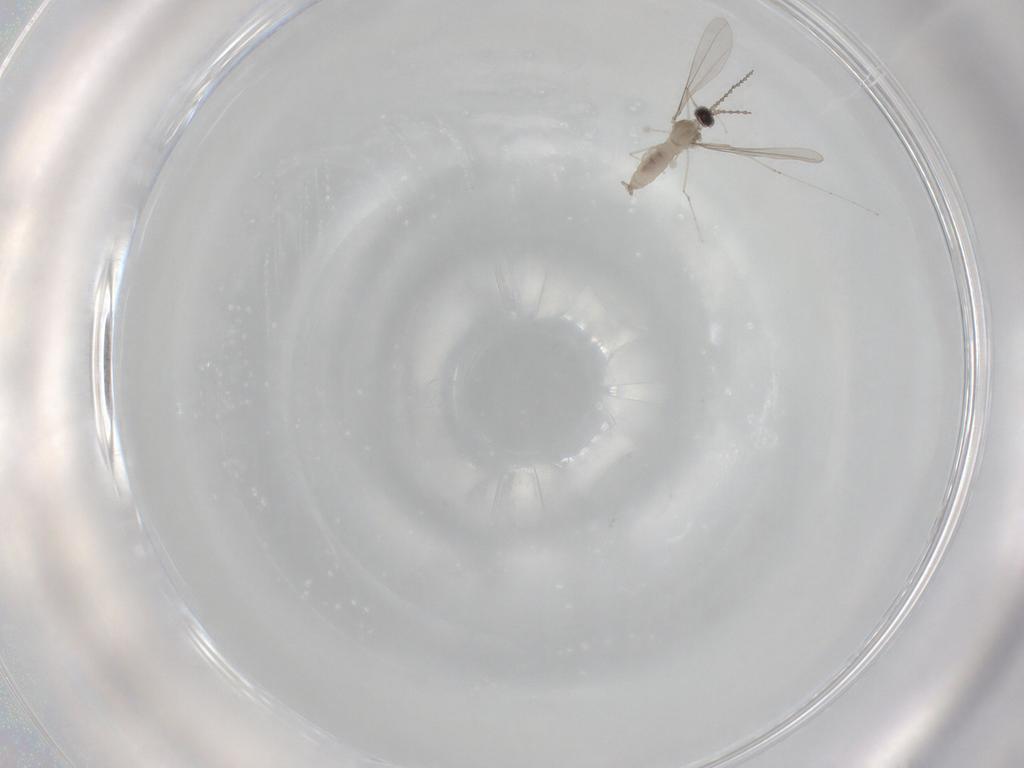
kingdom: Animalia
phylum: Arthropoda
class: Insecta
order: Diptera
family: Cecidomyiidae
